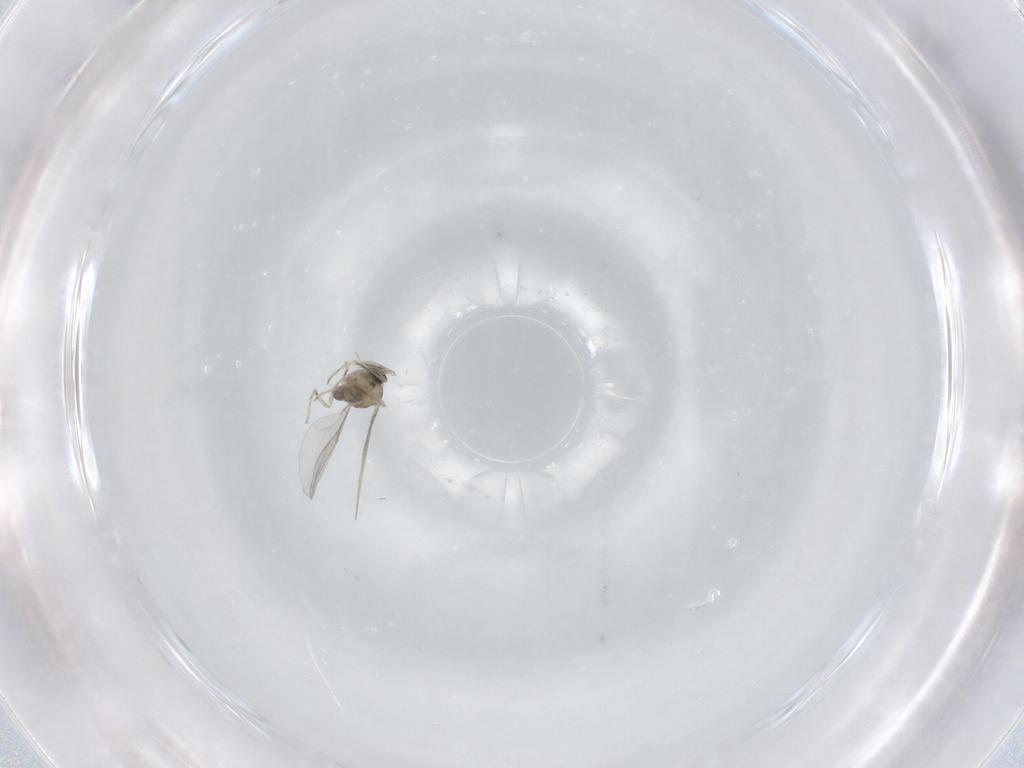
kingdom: Animalia
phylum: Arthropoda
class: Insecta
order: Diptera
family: Cecidomyiidae
